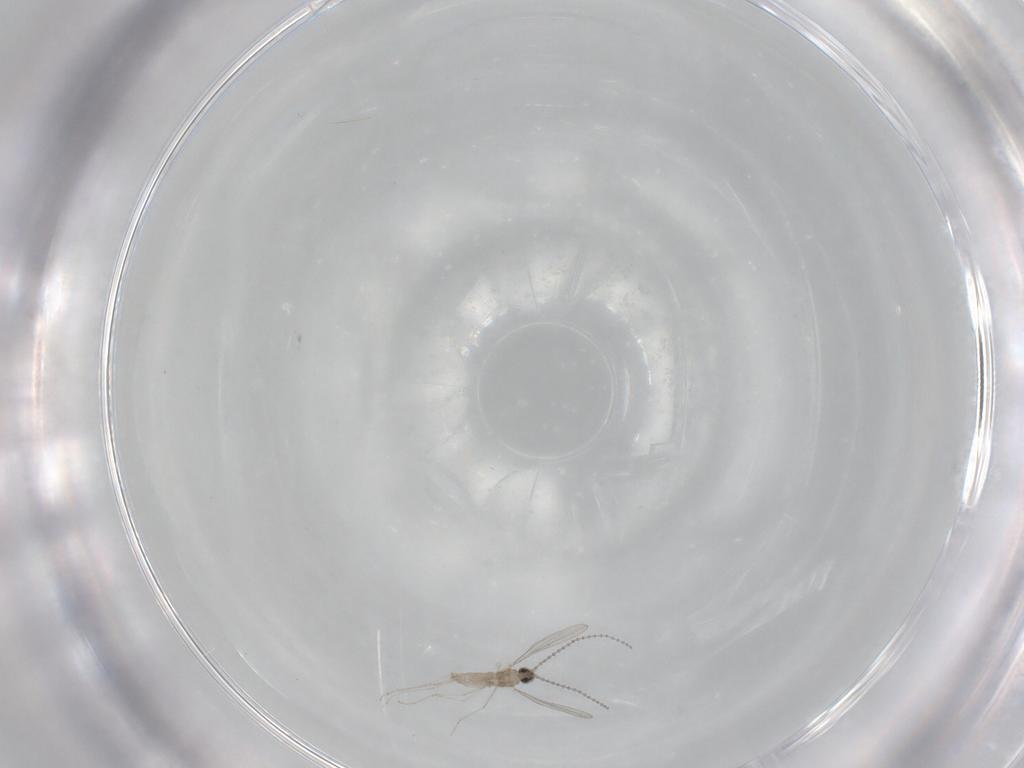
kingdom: Animalia
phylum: Arthropoda
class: Insecta
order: Diptera
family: Cecidomyiidae
